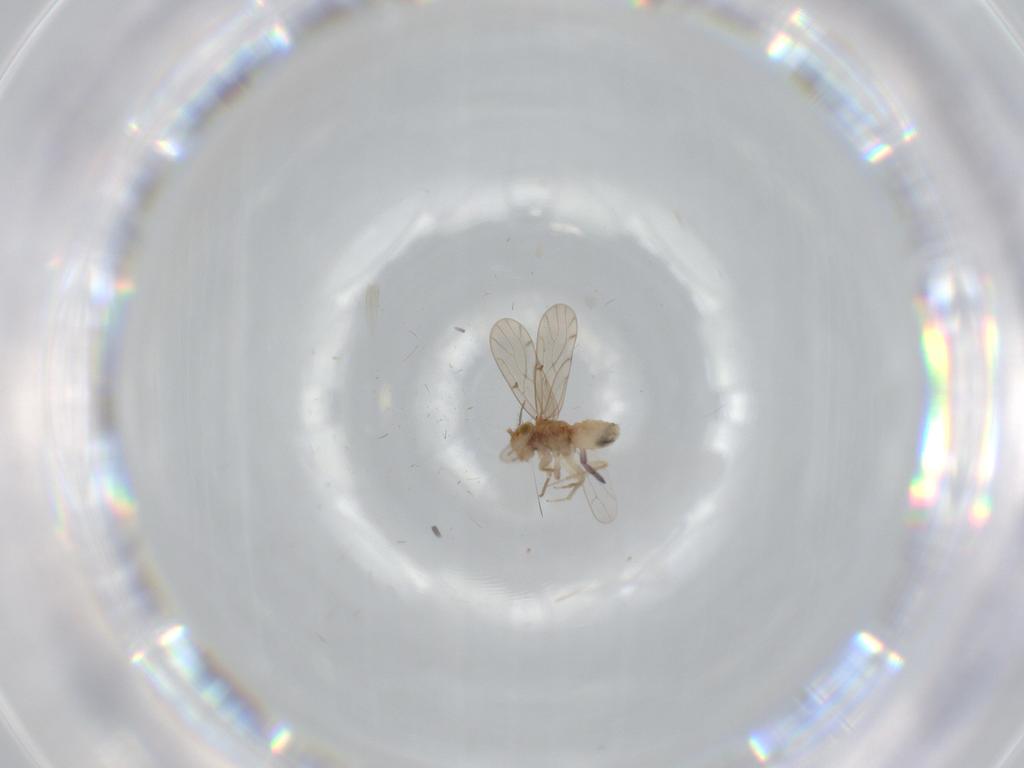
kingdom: Animalia
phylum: Arthropoda
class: Insecta
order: Psocodea
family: Ectopsocidae
